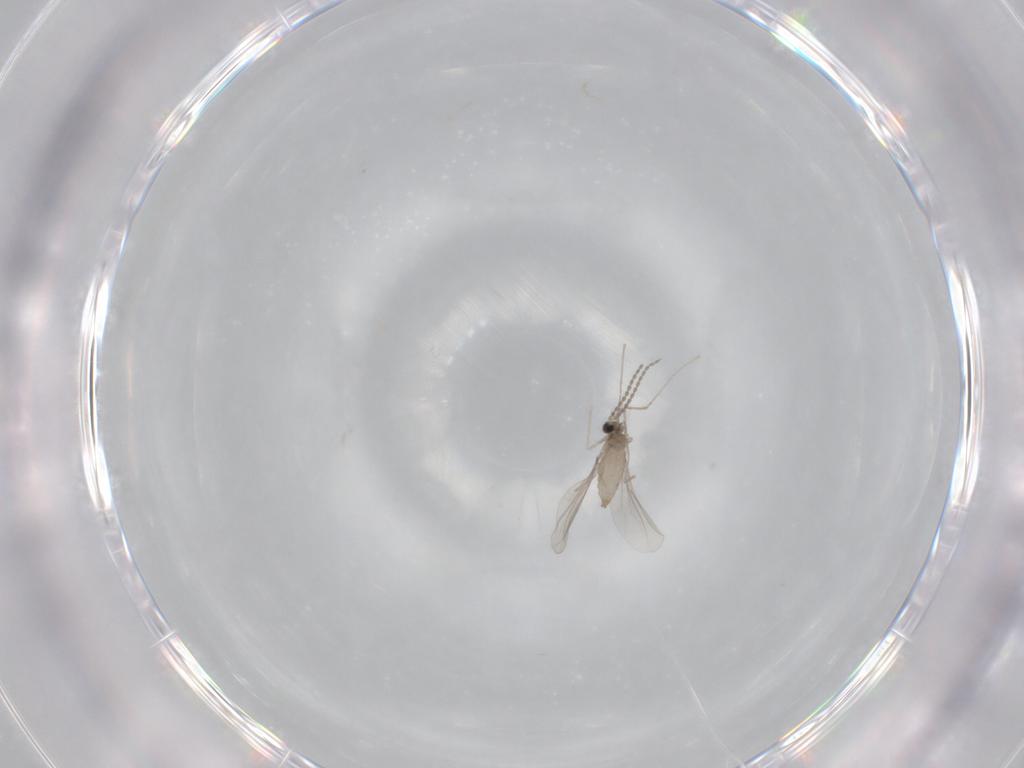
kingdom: Animalia
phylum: Arthropoda
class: Insecta
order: Diptera
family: Cecidomyiidae
